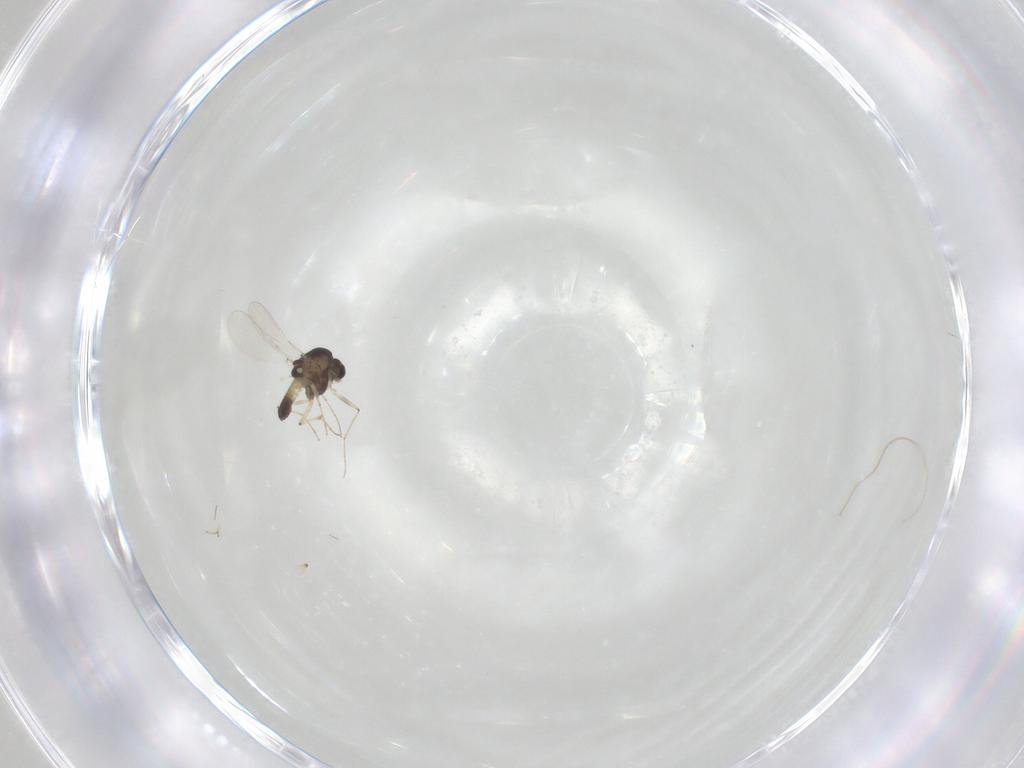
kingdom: Animalia
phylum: Arthropoda
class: Insecta
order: Diptera
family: Chironomidae
